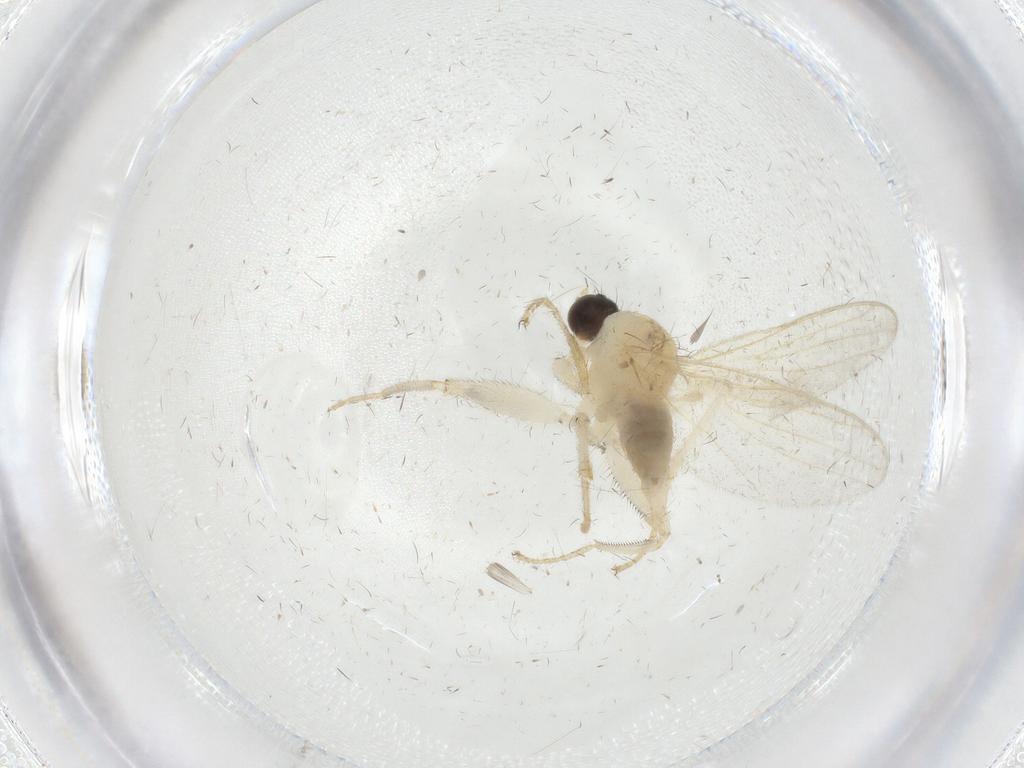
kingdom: Animalia
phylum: Arthropoda
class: Insecta
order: Diptera
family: Hybotidae
